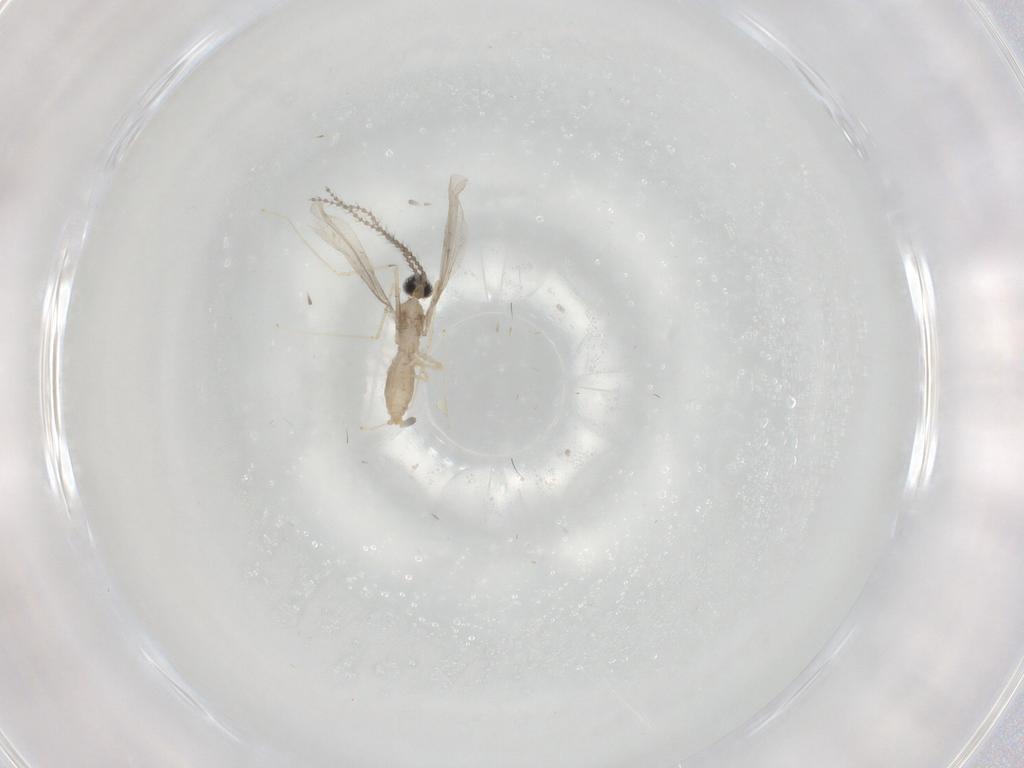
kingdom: Animalia
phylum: Arthropoda
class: Insecta
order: Diptera
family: Cecidomyiidae
